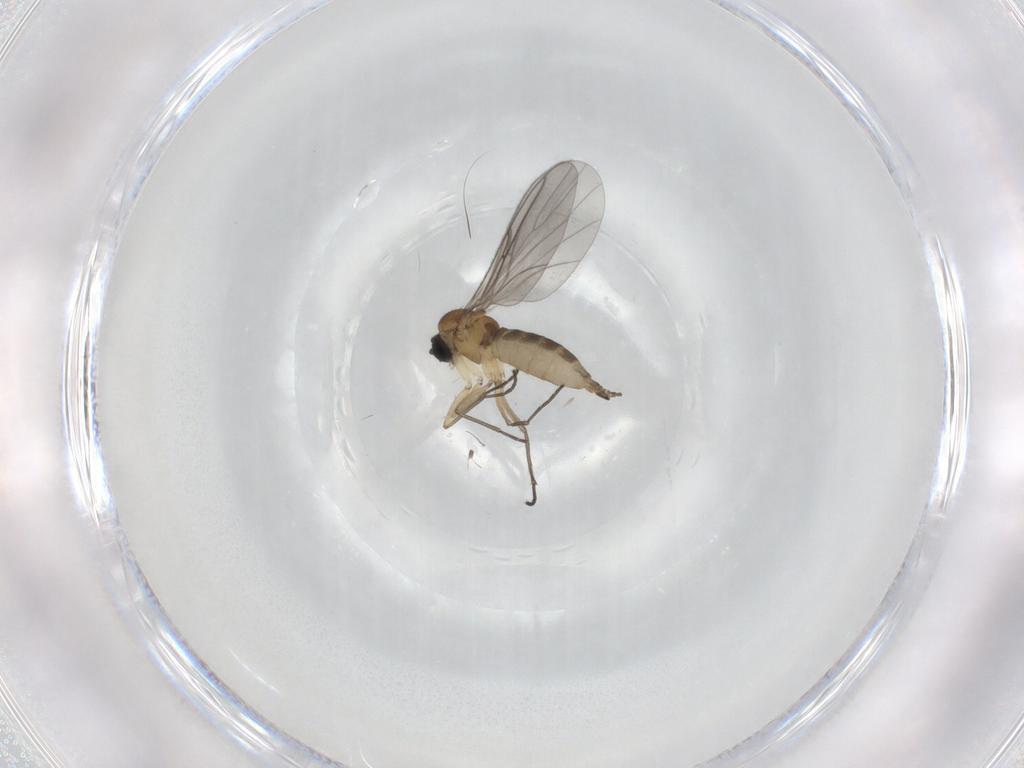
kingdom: Animalia
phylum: Arthropoda
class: Insecta
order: Diptera
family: Sciaridae
